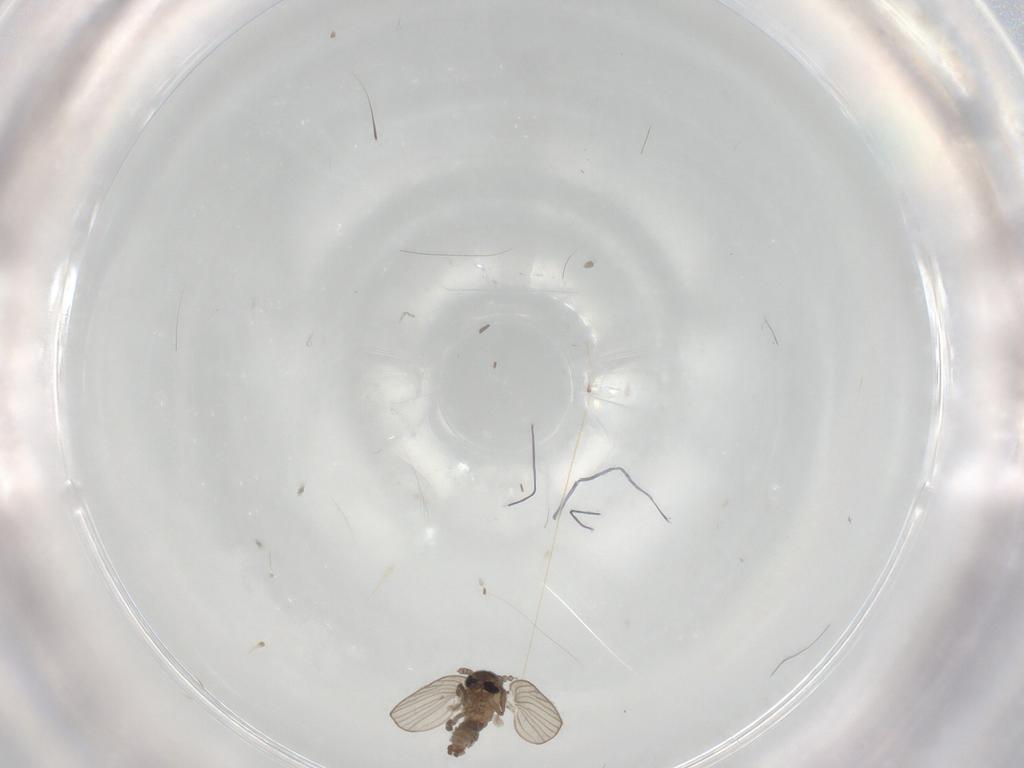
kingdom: Animalia
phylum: Arthropoda
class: Insecta
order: Diptera
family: Psychodidae
